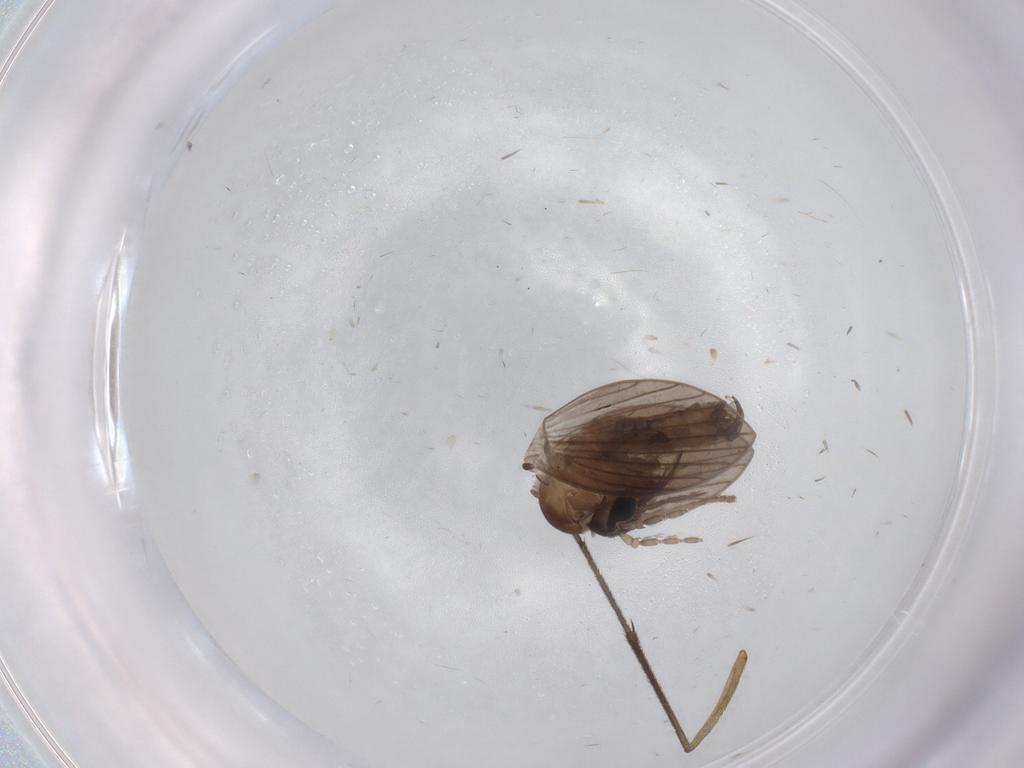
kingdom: Animalia
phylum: Arthropoda
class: Insecta
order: Diptera
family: Psychodidae
